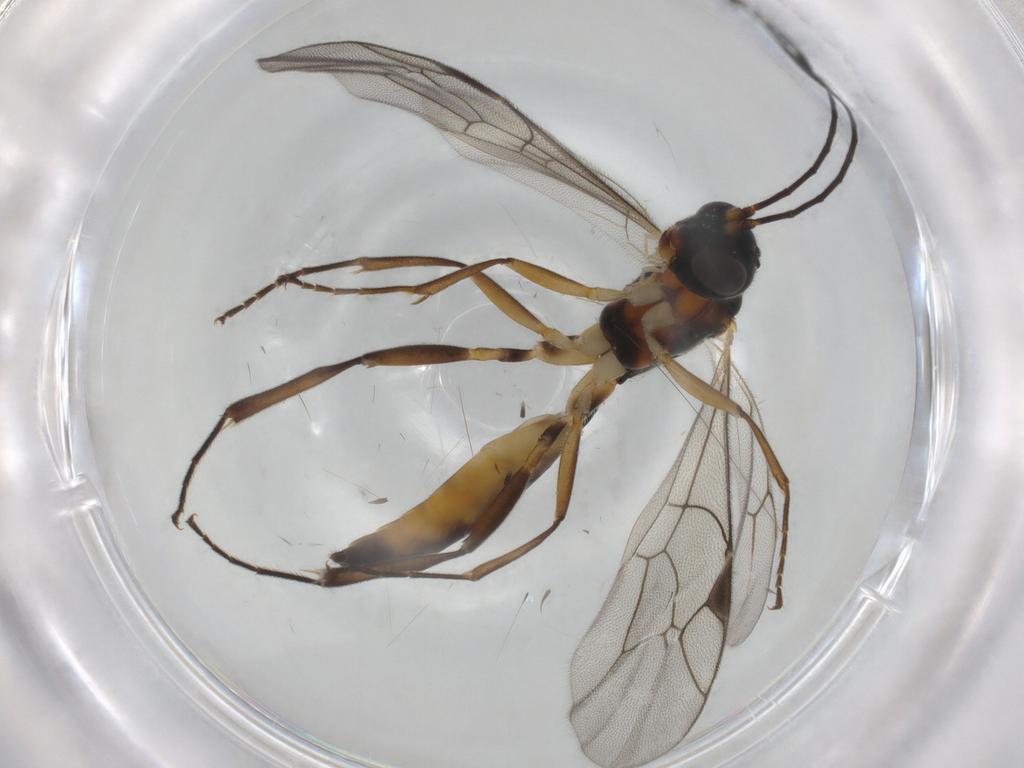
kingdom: Animalia
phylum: Arthropoda
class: Insecta
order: Hymenoptera
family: Ichneumonidae
